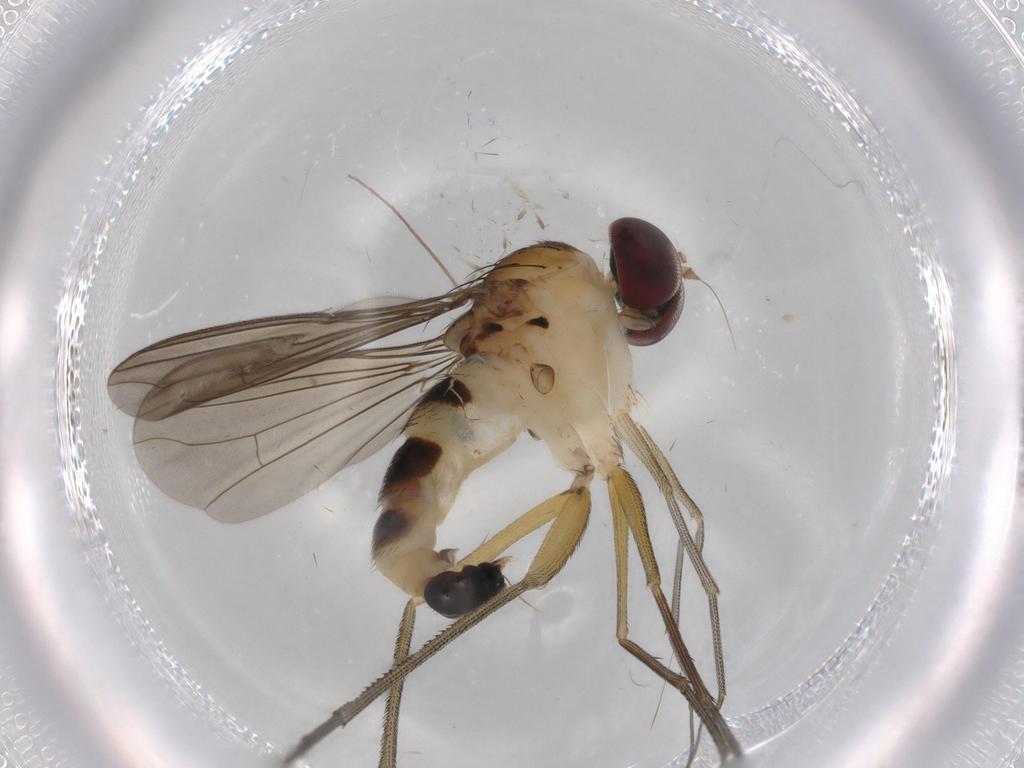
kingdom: Animalia
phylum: Arthropoda
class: Insecta
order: Diptera
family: Dolichopodidae
